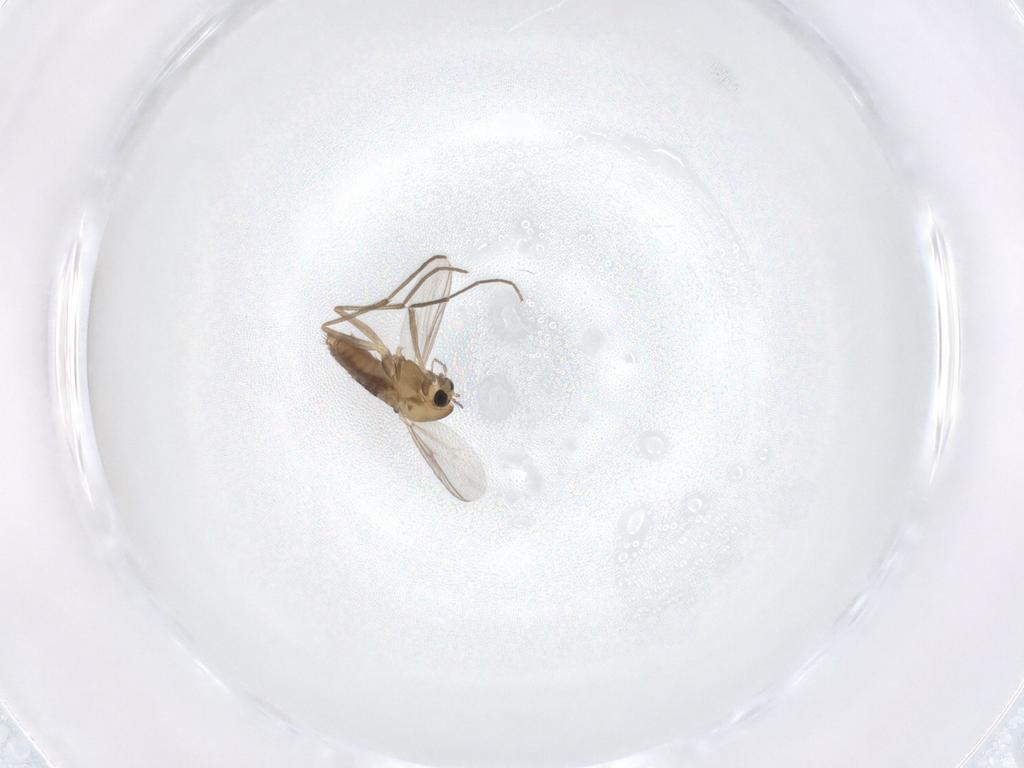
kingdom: Animalia
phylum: Arthropoda
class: Insecta
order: Diptera
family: Chironomidae
